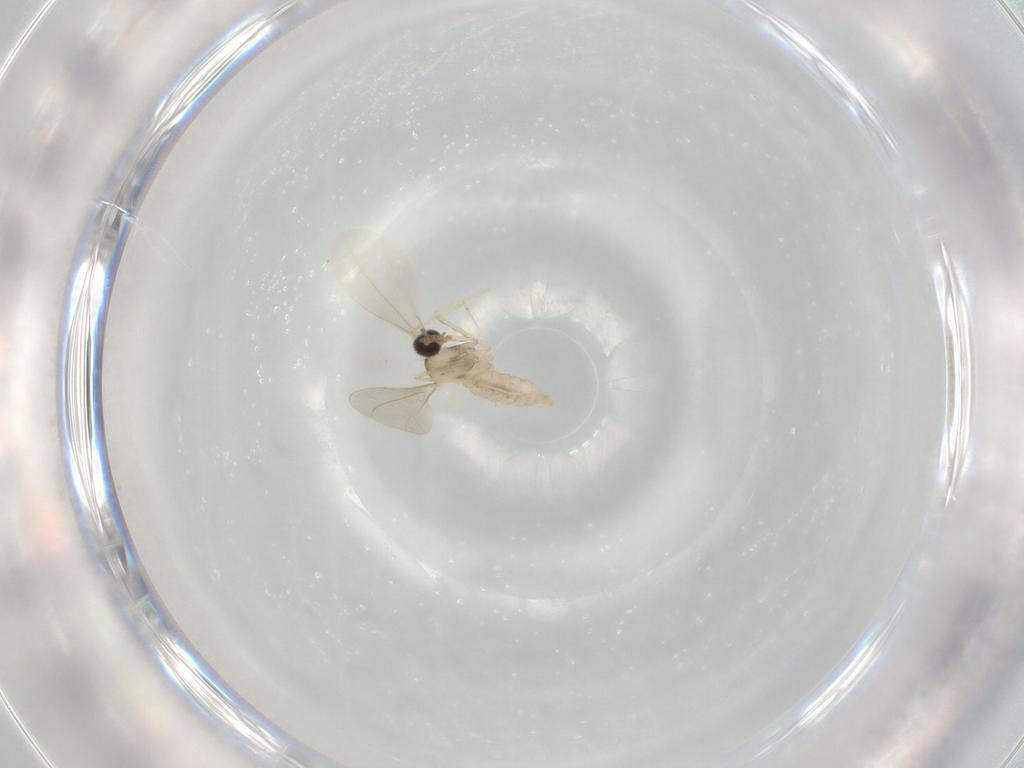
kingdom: Animalia
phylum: Arthropoda
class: Insecta
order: Diptera
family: Cecidomyiidae
